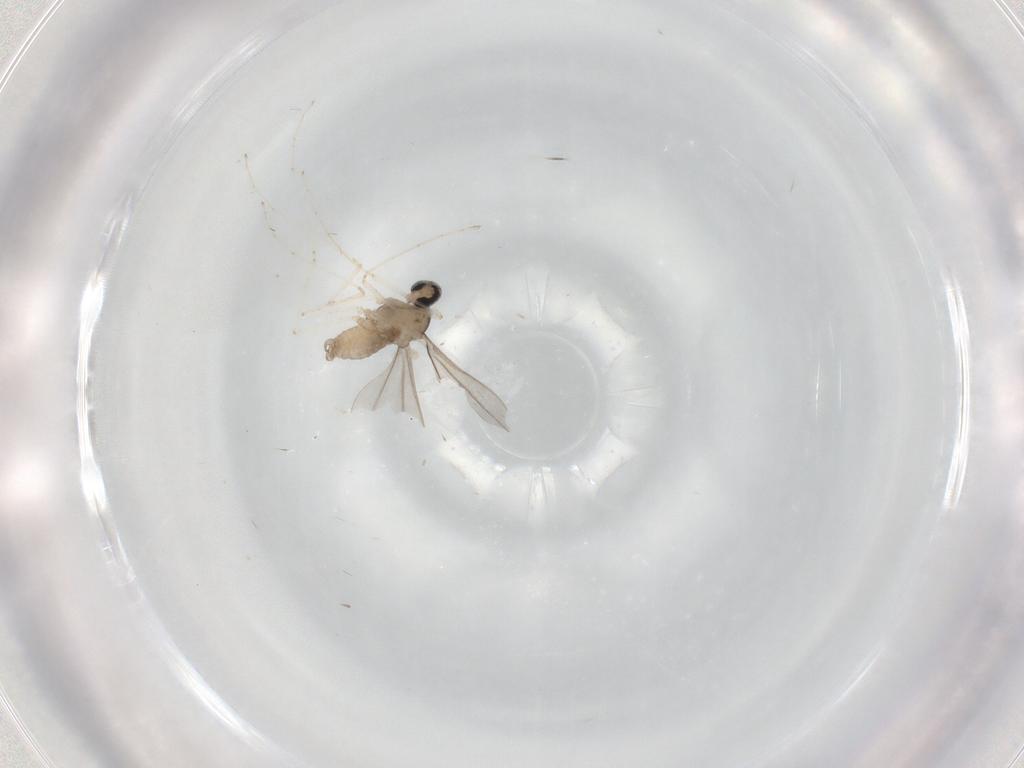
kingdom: Animalia
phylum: Arthropoda
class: Insecta
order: Diptera
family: Cecidomyiidae
